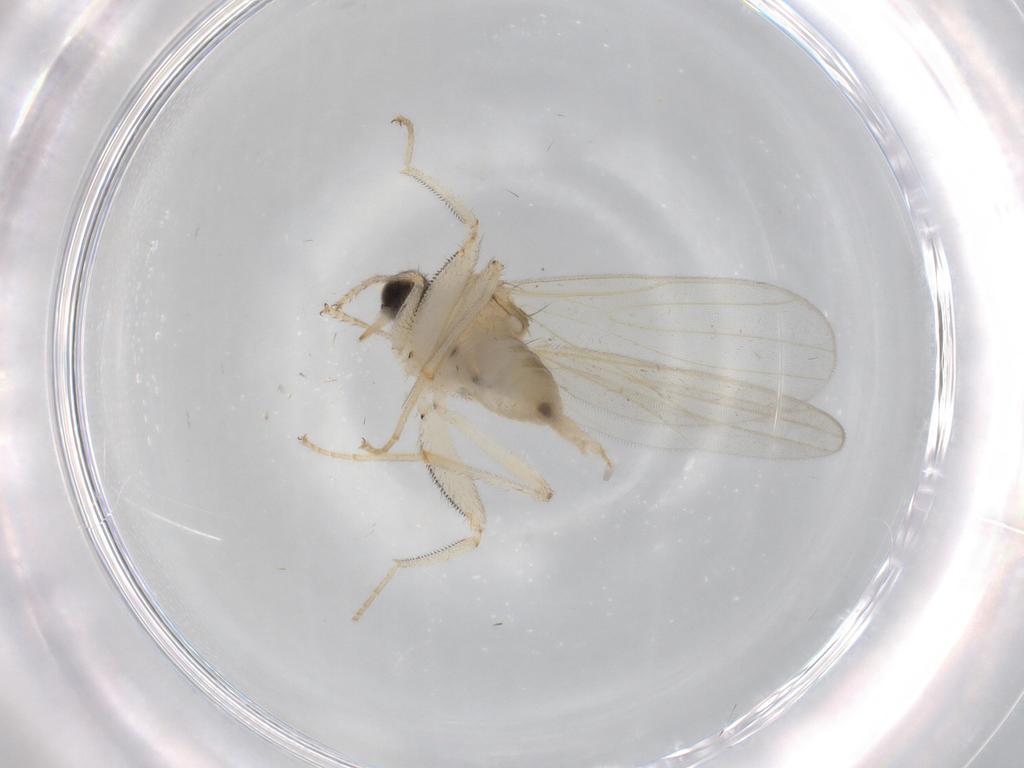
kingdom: Animalia
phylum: Arthropoda
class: Insecta
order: Diptera
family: Hybotidae
